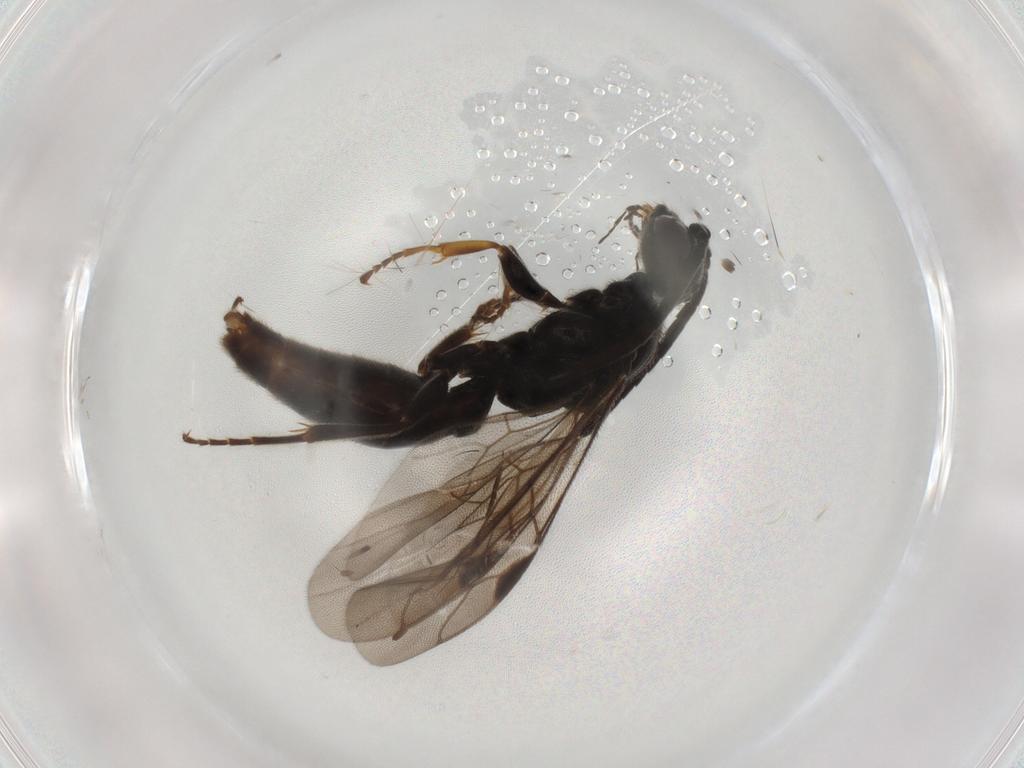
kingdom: Animalia
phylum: Arthropoda
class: Insecta
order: Hymenoptera
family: Sierolomorphidae
